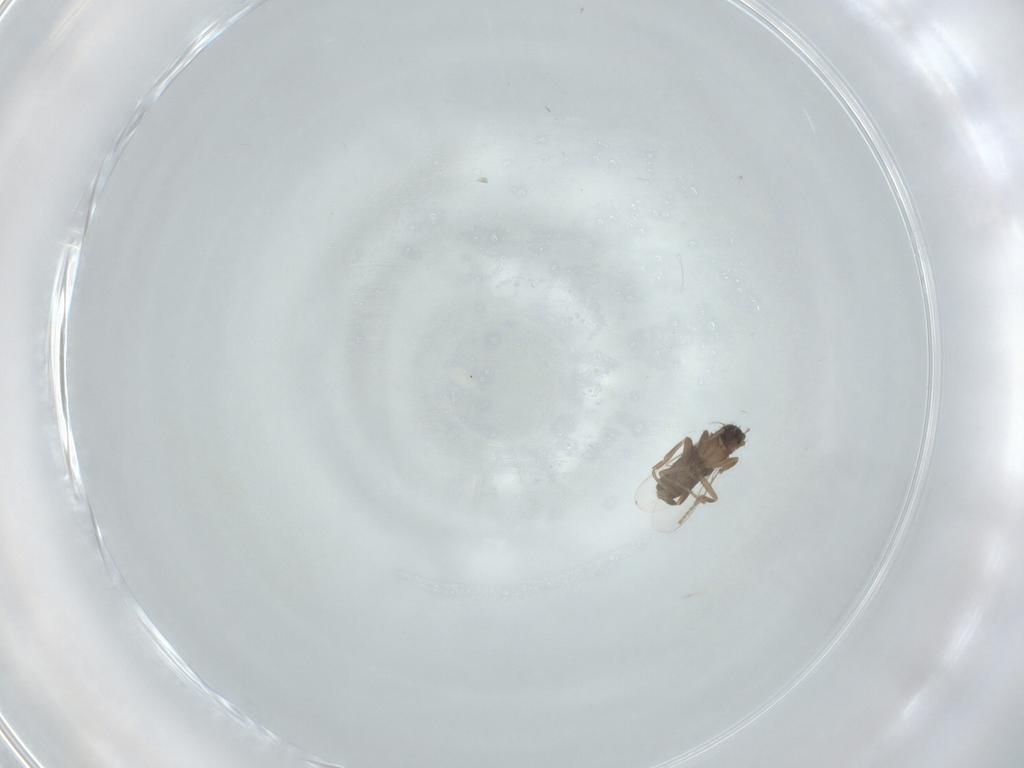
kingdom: Animalia
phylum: Arthropoda
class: Insecta
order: Diptera
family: Sciaridae
